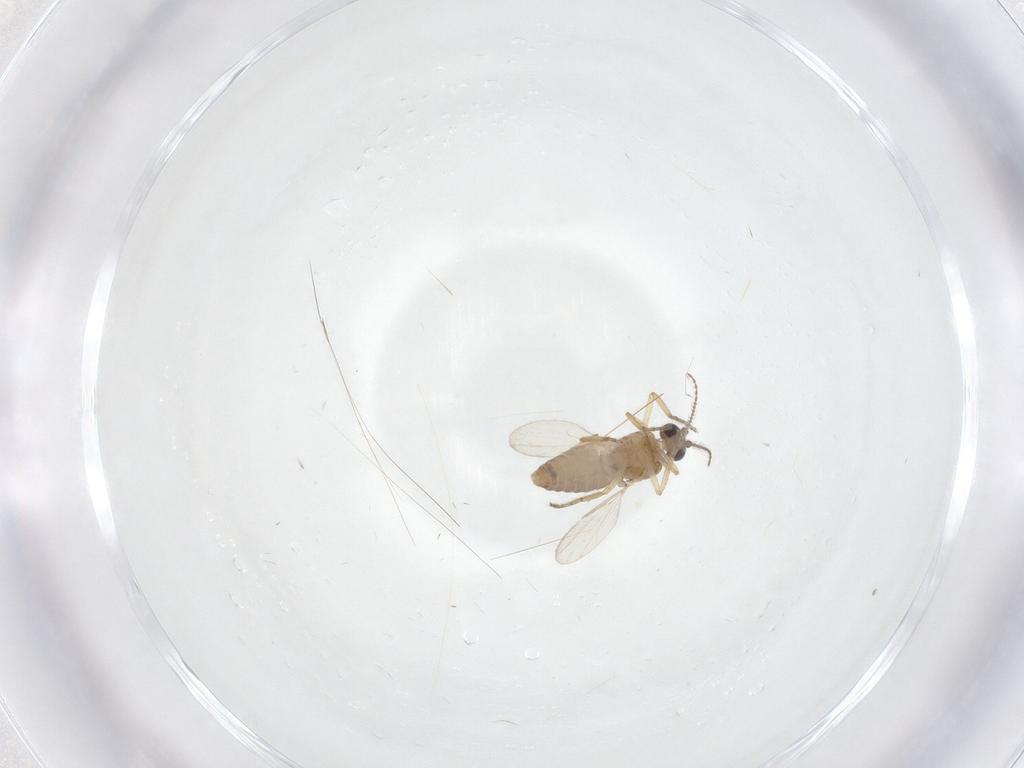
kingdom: Animalia
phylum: Arthropoda
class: Insecta
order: Diptera
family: Ceratopogonidae
